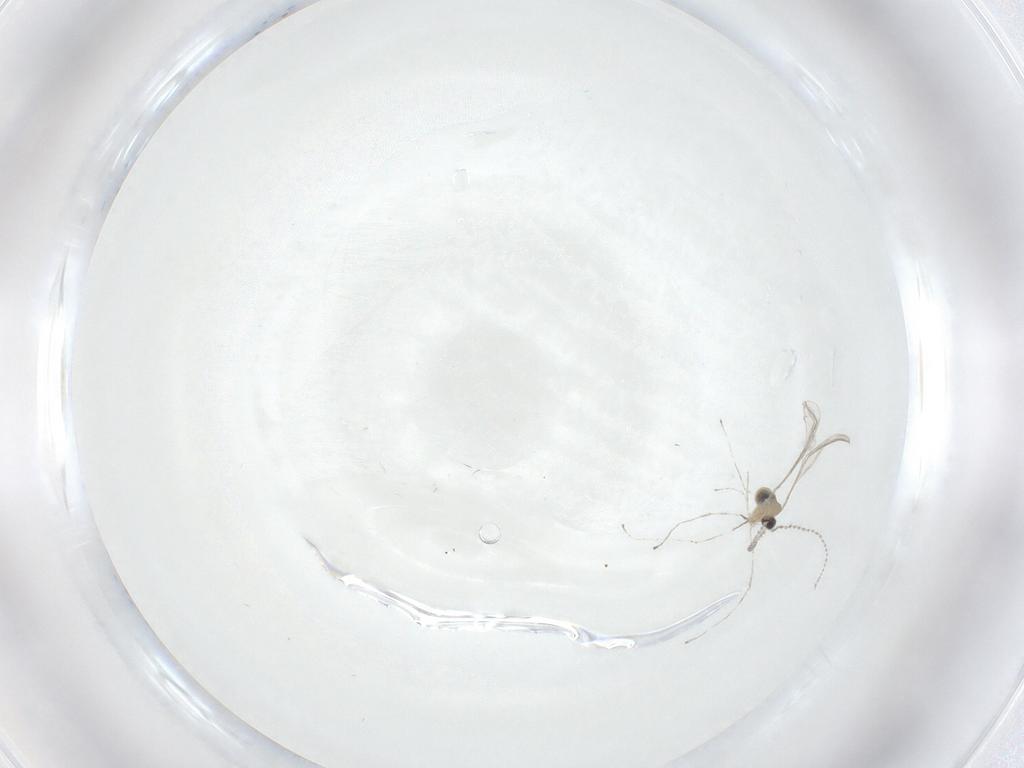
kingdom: Animalia
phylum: Arthropoda
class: Insecta
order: Diptera
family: Cecidomyiidae
